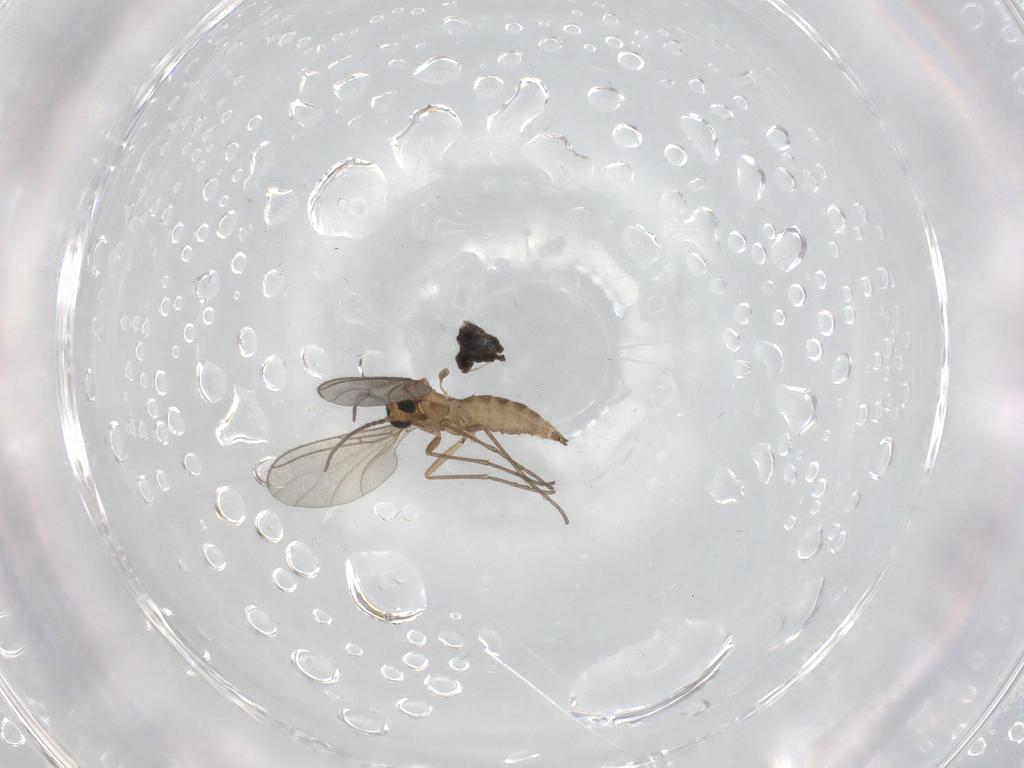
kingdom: Animalia
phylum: Arthropoda
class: Insecta
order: Diptera
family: Sciaridae
